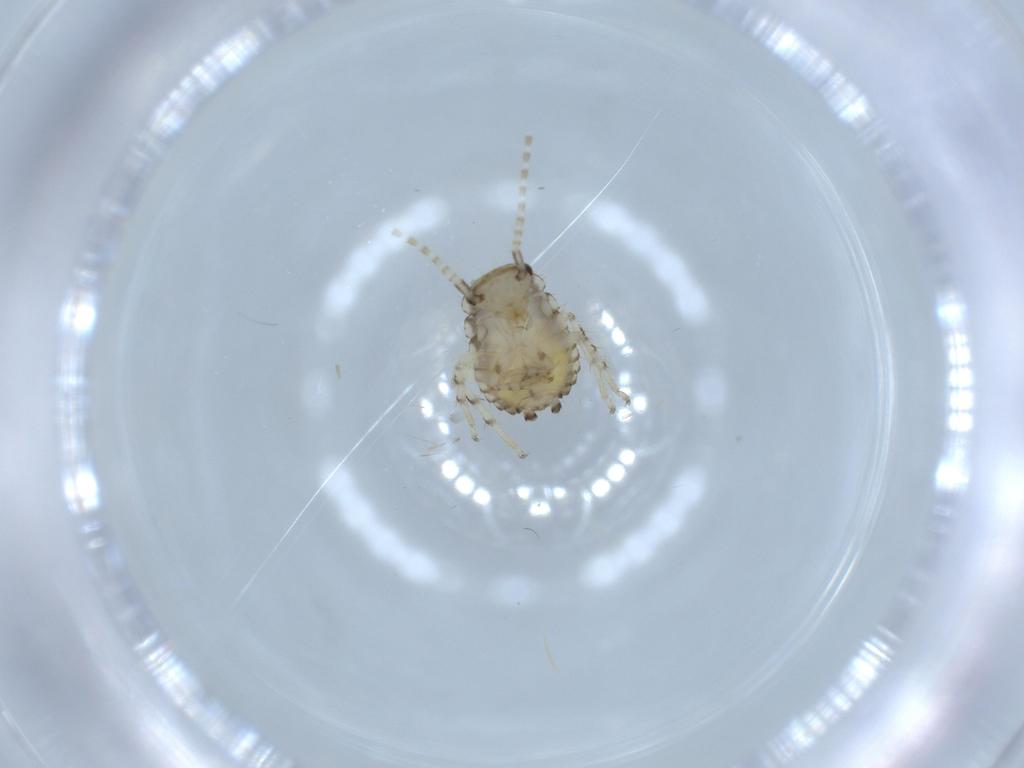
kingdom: Animalia
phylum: Arthropoda
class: Insecta
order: Blattodea
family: Ectobiidae
